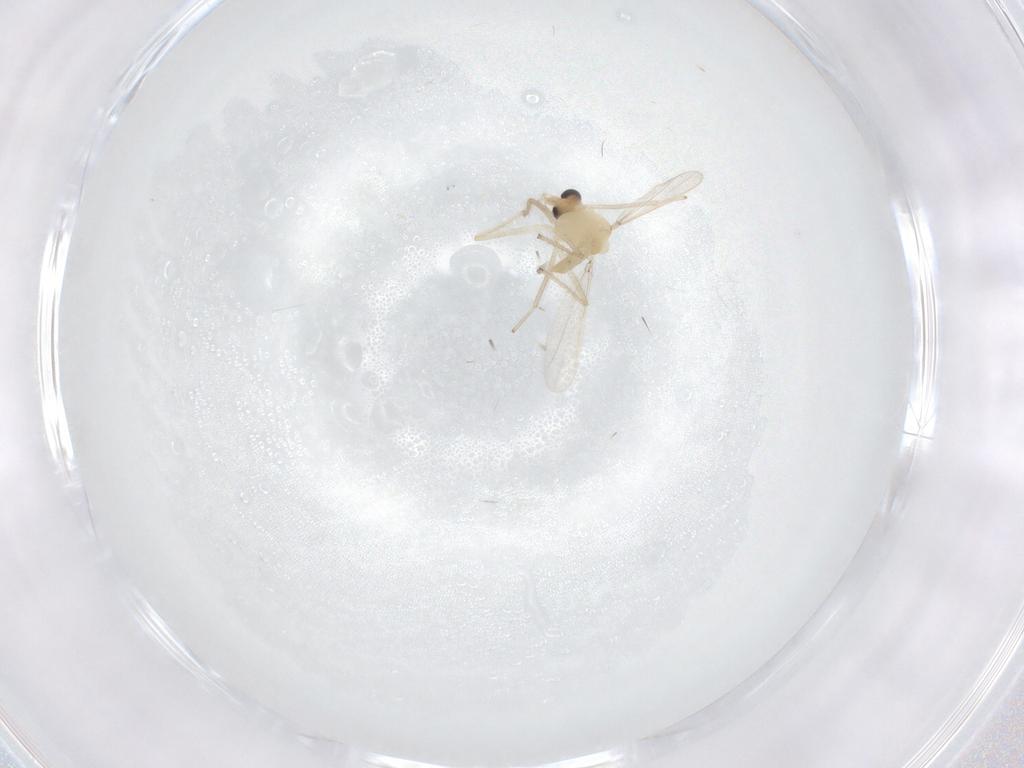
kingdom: Animalia
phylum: Arthropoda
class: Insecta
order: Diptera
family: Chironomidae
